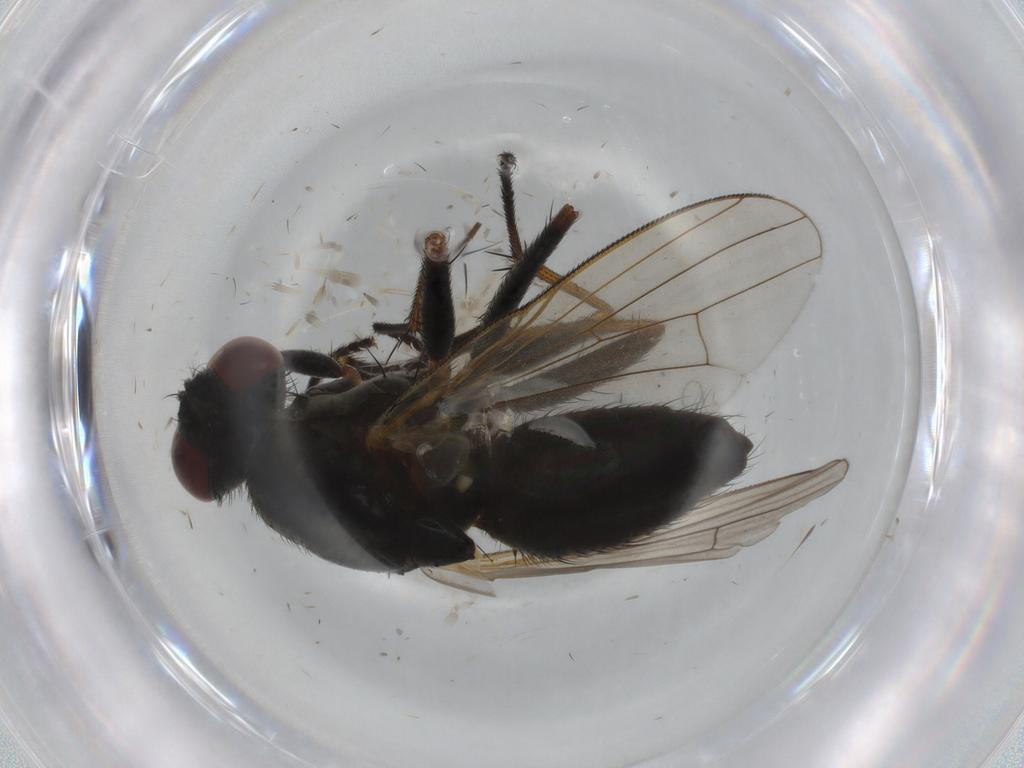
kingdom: Animalia
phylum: Arthropoda
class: Insecta
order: Diptera
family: Muscidae
